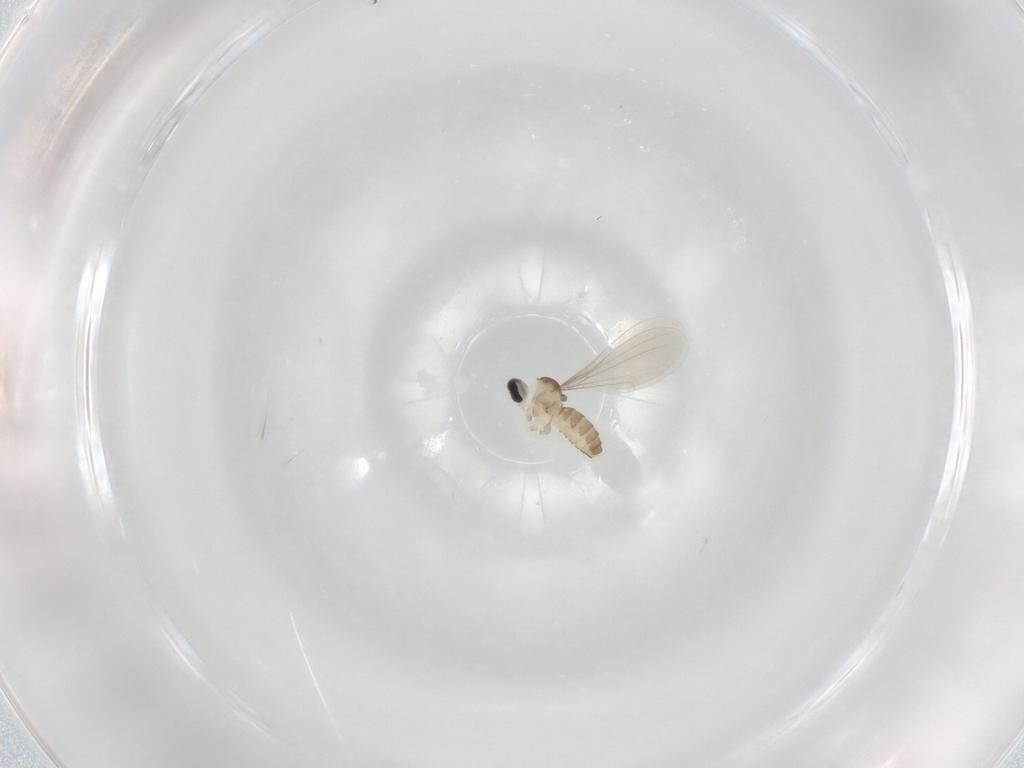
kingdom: Animalia
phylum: Arthropoda
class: Insecta
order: Diptera
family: Cecidomyiidae
